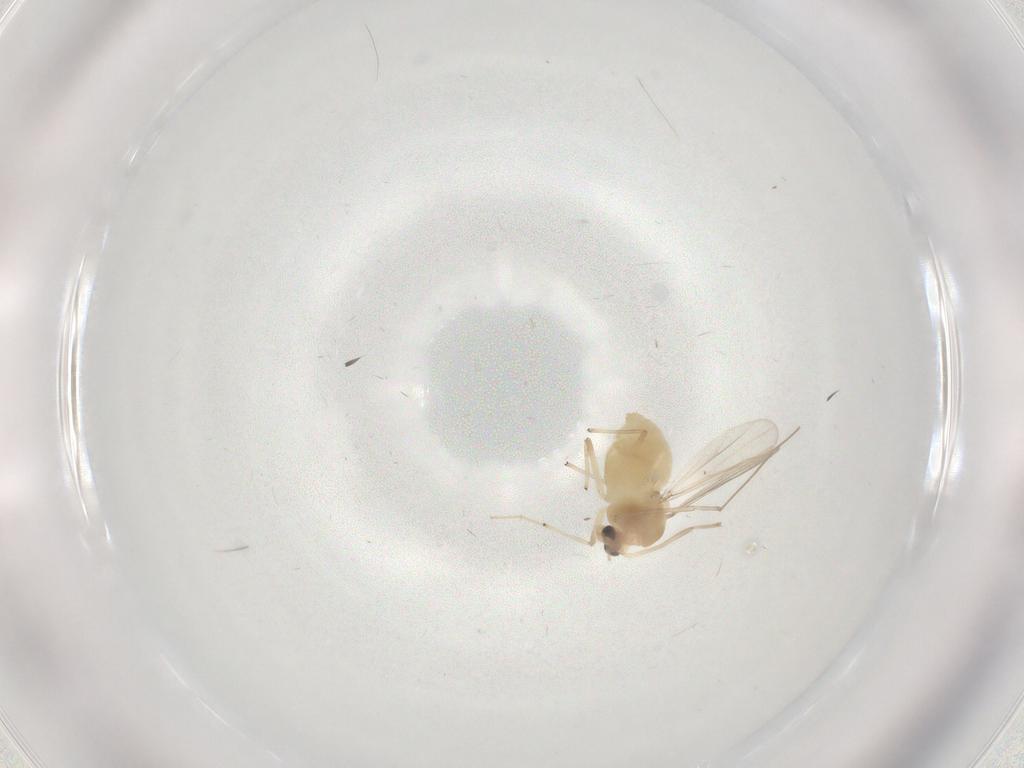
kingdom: Animalia
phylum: Arthropoda
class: Insecta
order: Diptera
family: Chironomidae
